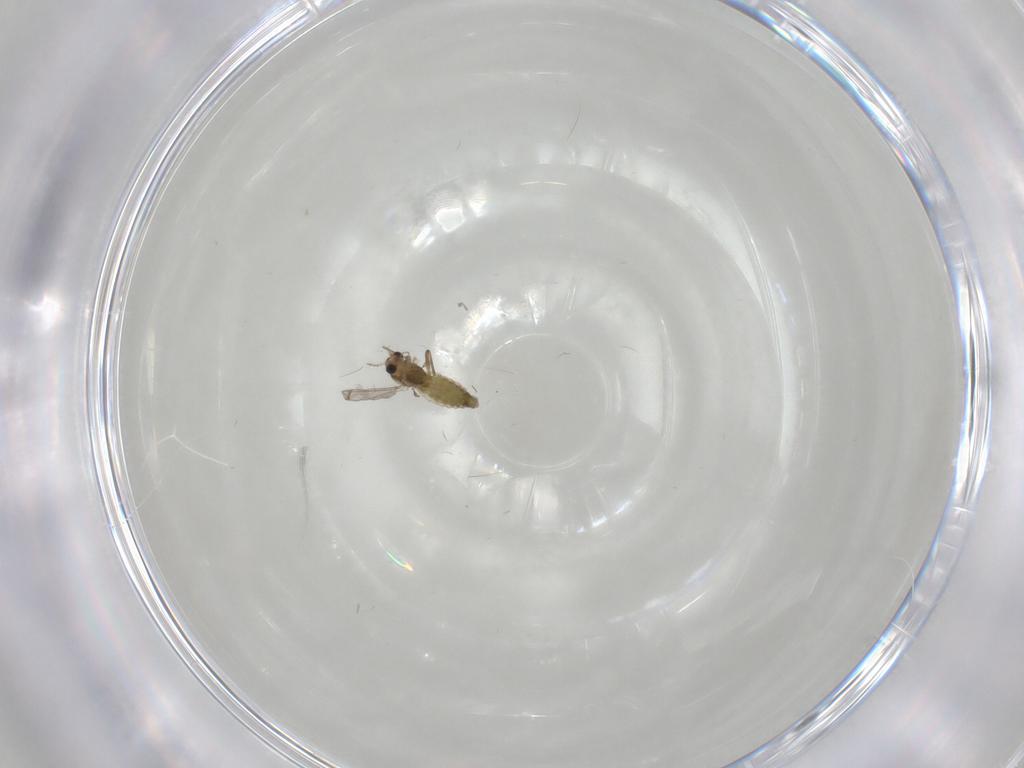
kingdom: Animalia
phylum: Arthropoda
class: Insecta
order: Diptera
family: Chironomidae
